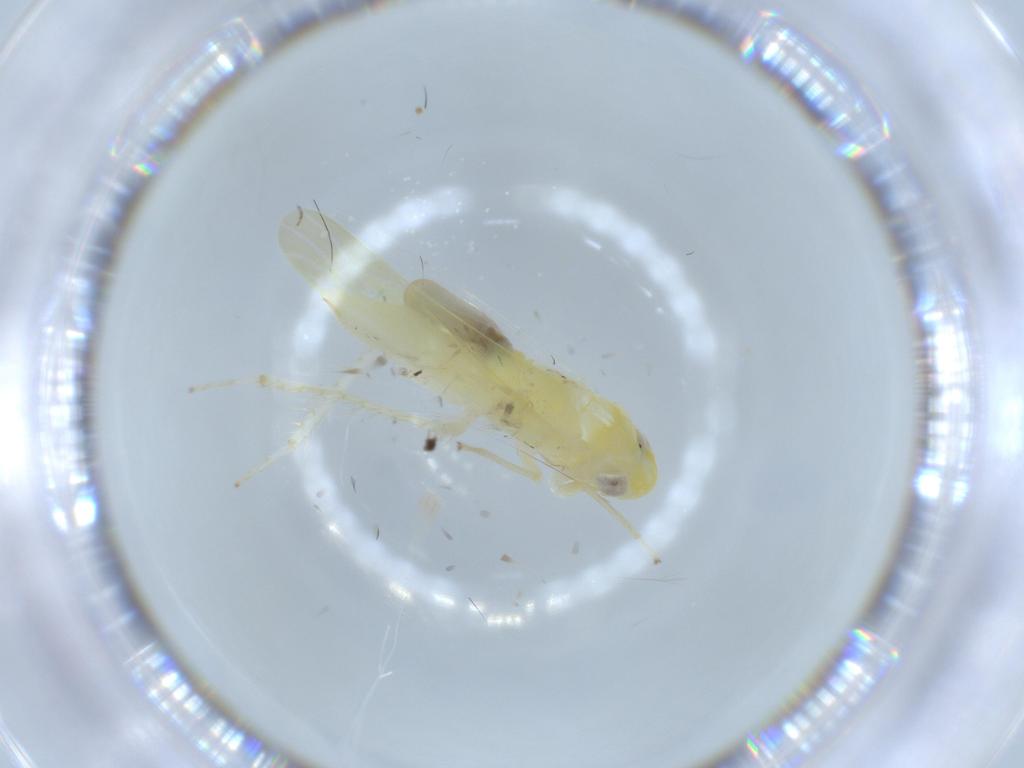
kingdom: Animalia
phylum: Arthropoda
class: Insecta
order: Hemiptera
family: Cicadellidae
